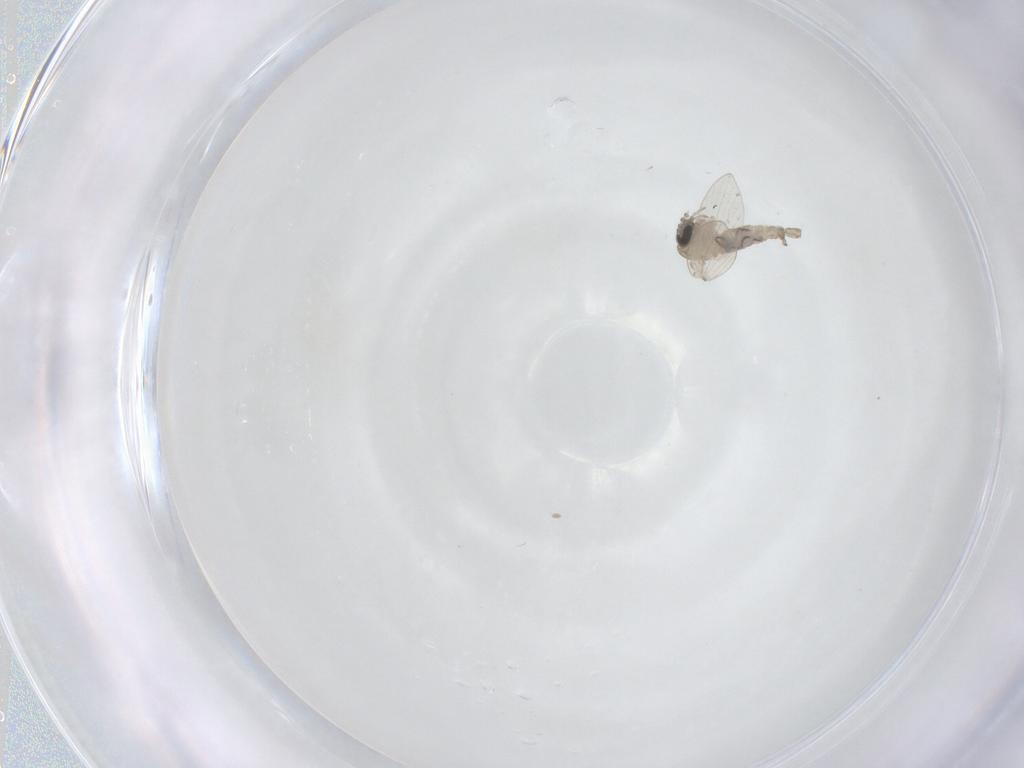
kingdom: Animalia
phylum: Arthropoda
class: Insecta
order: Diptera
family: Psychodidae
